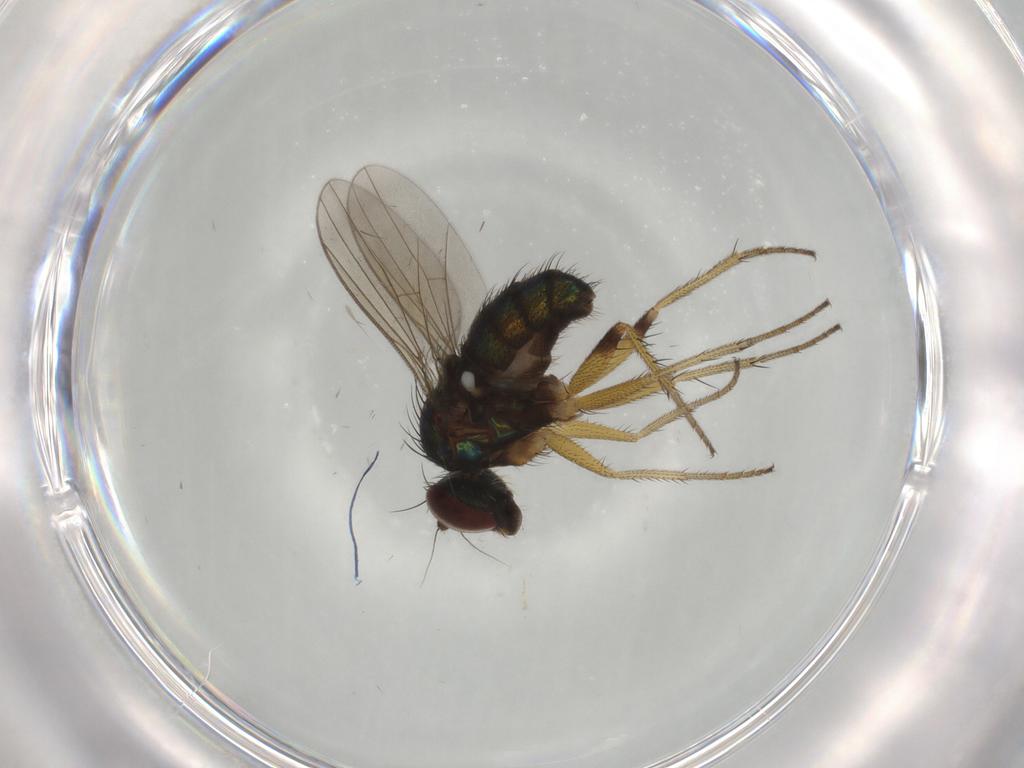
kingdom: Animalia
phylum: Arthropoda
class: Insecta
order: Diptera
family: Dolichopodidae
